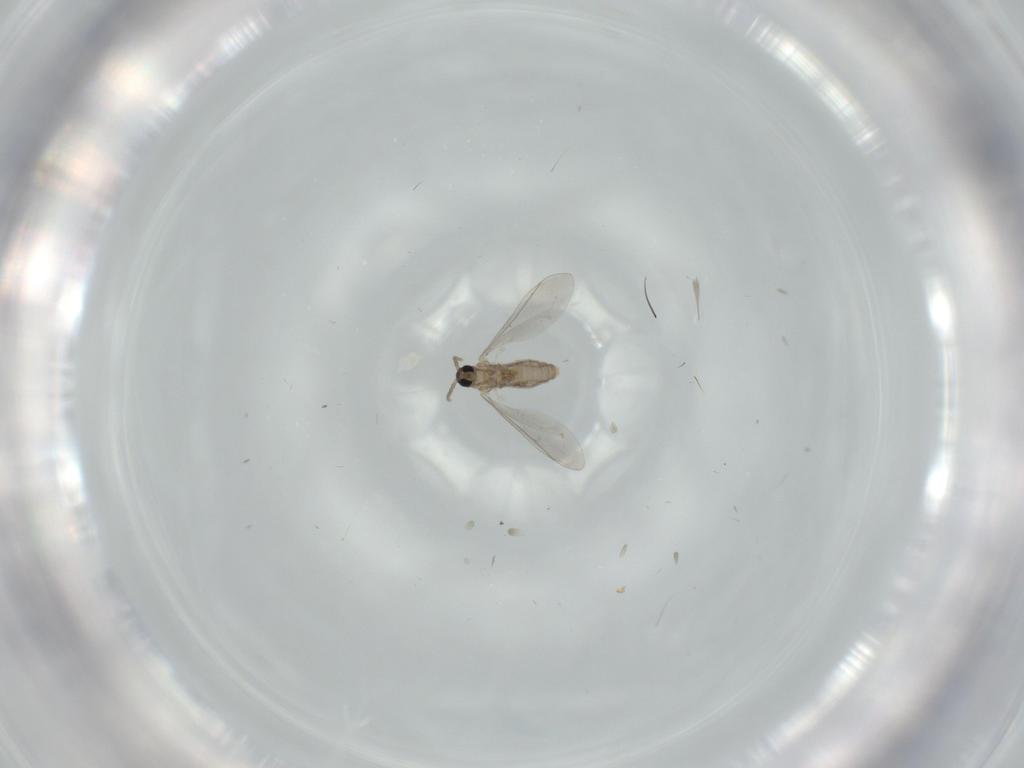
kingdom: Animalia
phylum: Arthropoda
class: Insecta
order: Diptera
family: Cecidomyiidae
